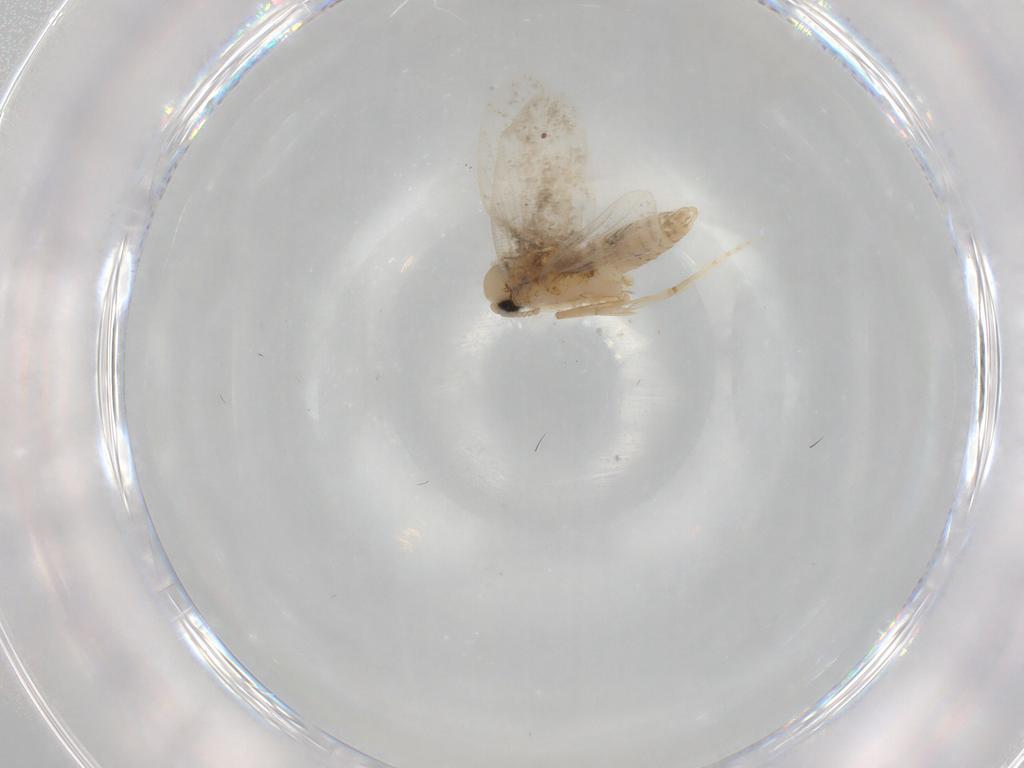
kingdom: Animalia
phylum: Arthropoda
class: Insecta
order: Lepidoptera
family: Psychidae
